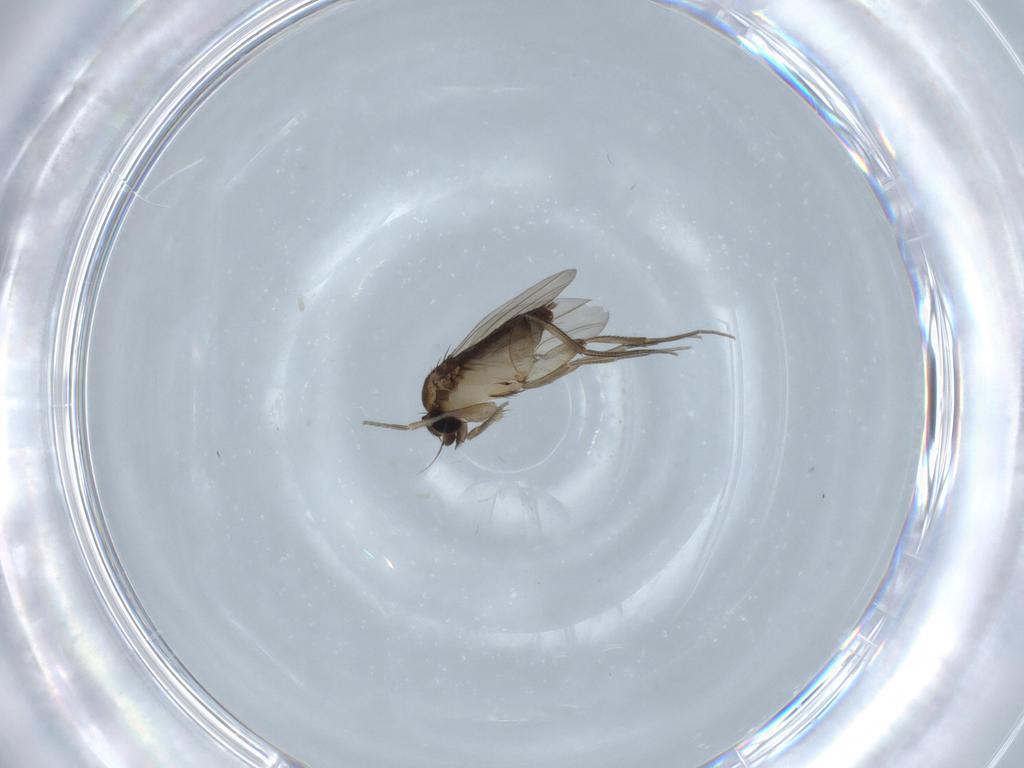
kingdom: Animalia
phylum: Arthropoda
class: Insecta
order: Diptera
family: Phoridae
